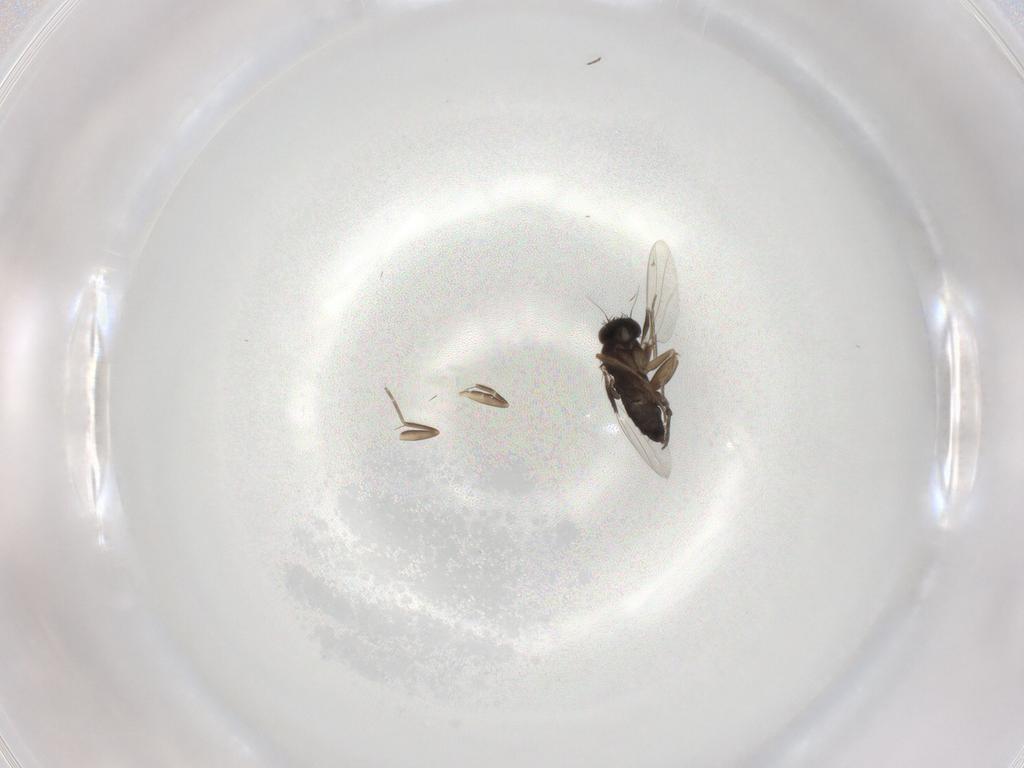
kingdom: Animalia
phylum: Arthropoda
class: Insecta
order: Diptera
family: Phoridae
